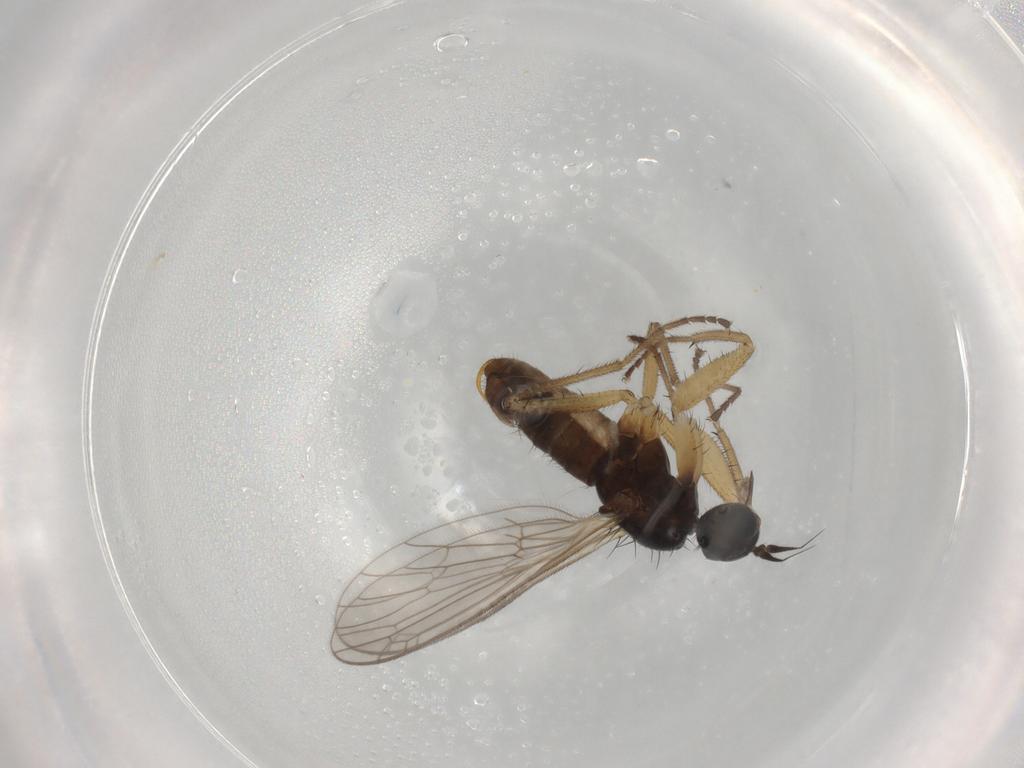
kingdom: Animalia
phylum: Arthropoda
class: Insecta
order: Diptera
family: Empididae
